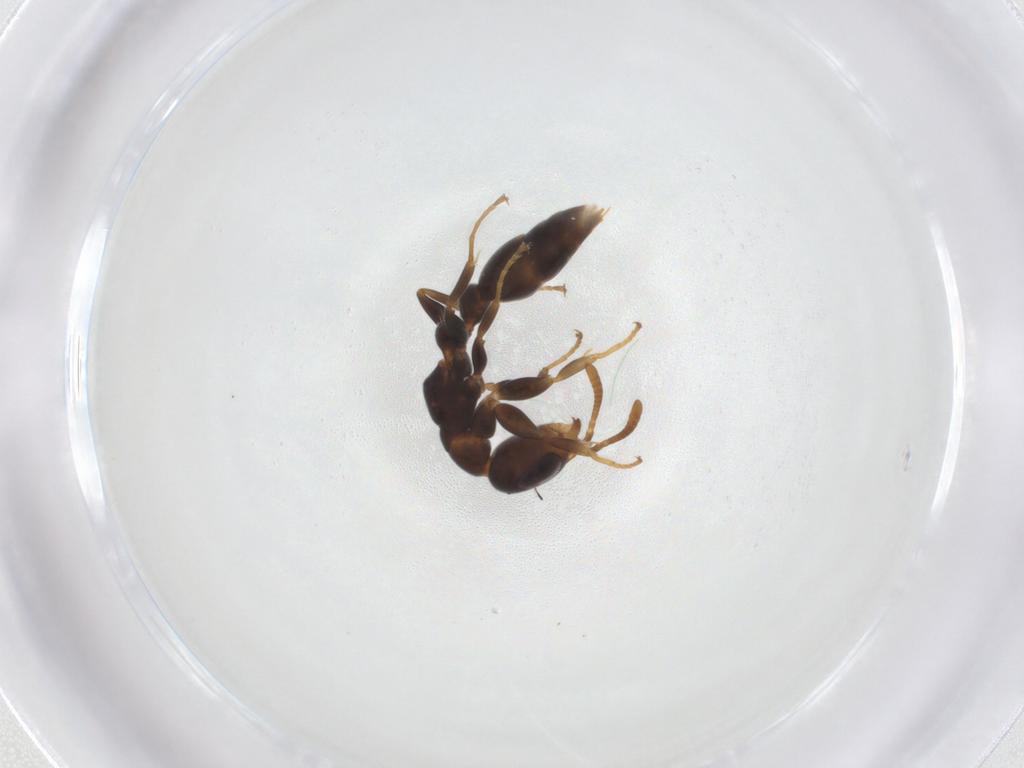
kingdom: Animalia
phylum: Arthropoda
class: Insecta
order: Hymenoptera
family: Formicidae
